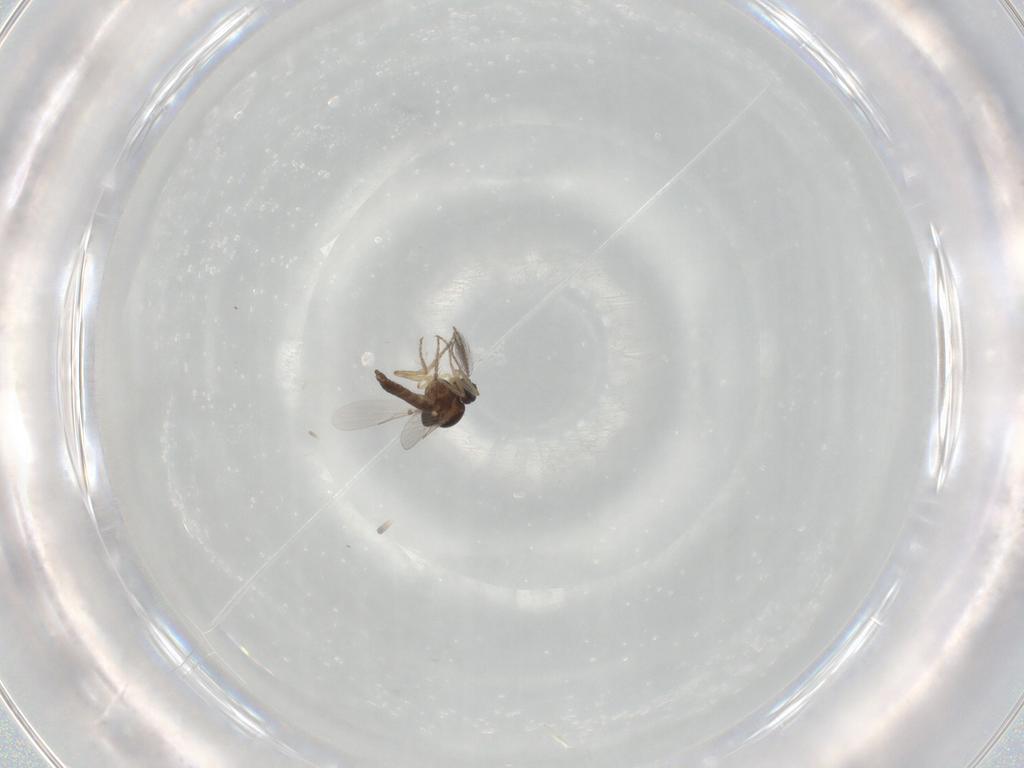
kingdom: Animalia
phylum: Arthropoda
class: Insecta
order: Diptera
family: Ceratopogonidae
